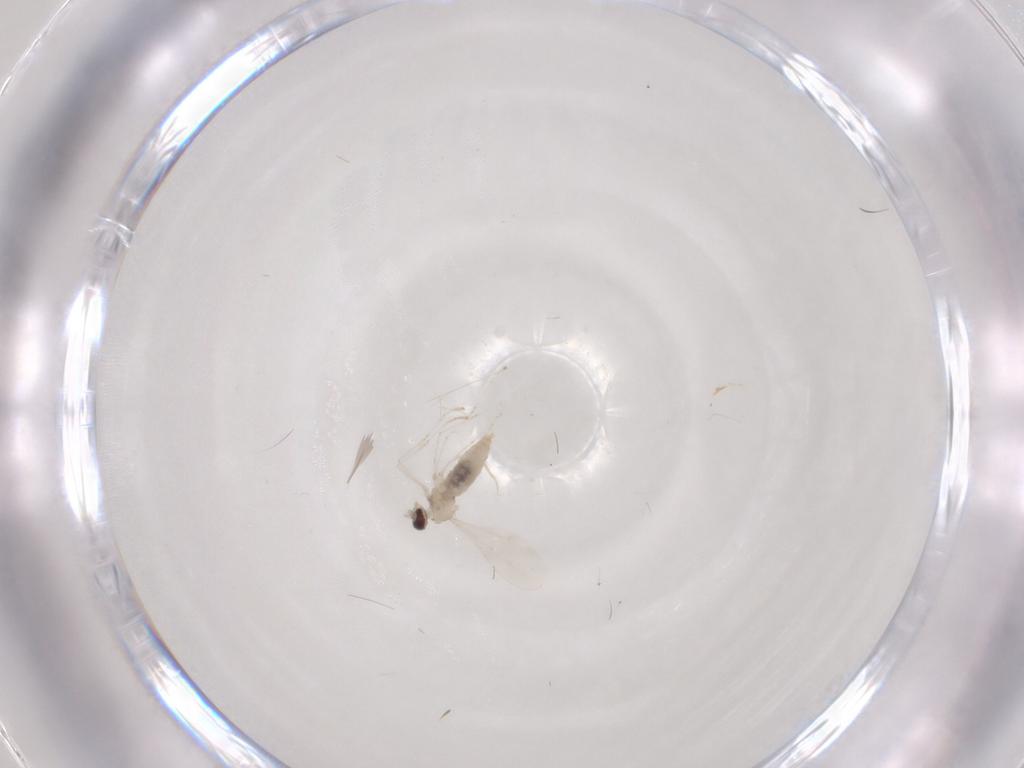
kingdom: Animalia
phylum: Arthropoda
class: Insecta
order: Diptera
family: Cecidomyiidae
